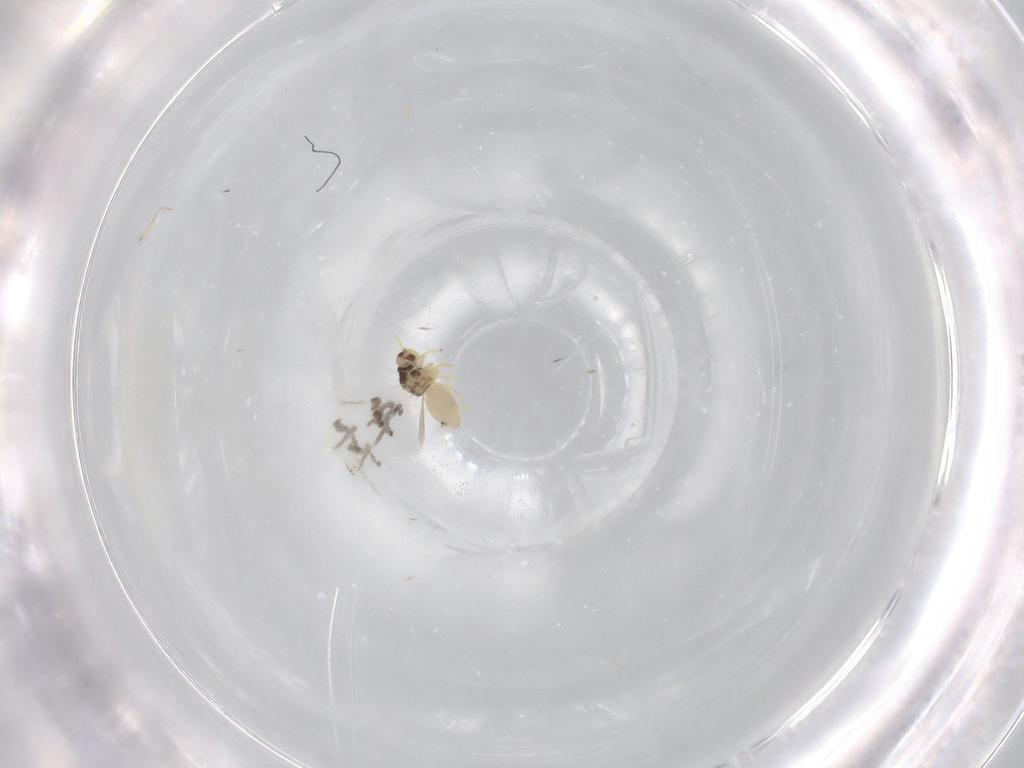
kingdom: Animalia
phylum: Arthropoda
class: Insecta
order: Hemiptera
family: Aleyrodidae
